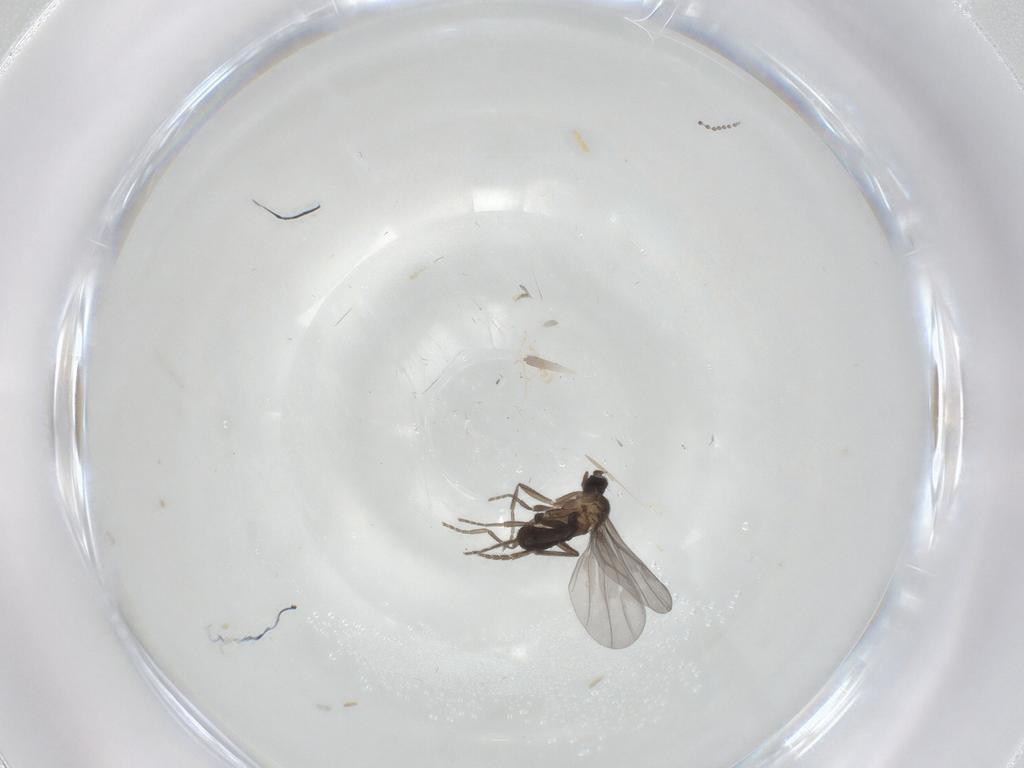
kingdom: Animalia
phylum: Arthropoda
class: Insecta
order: Diptera
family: Psychodidae
